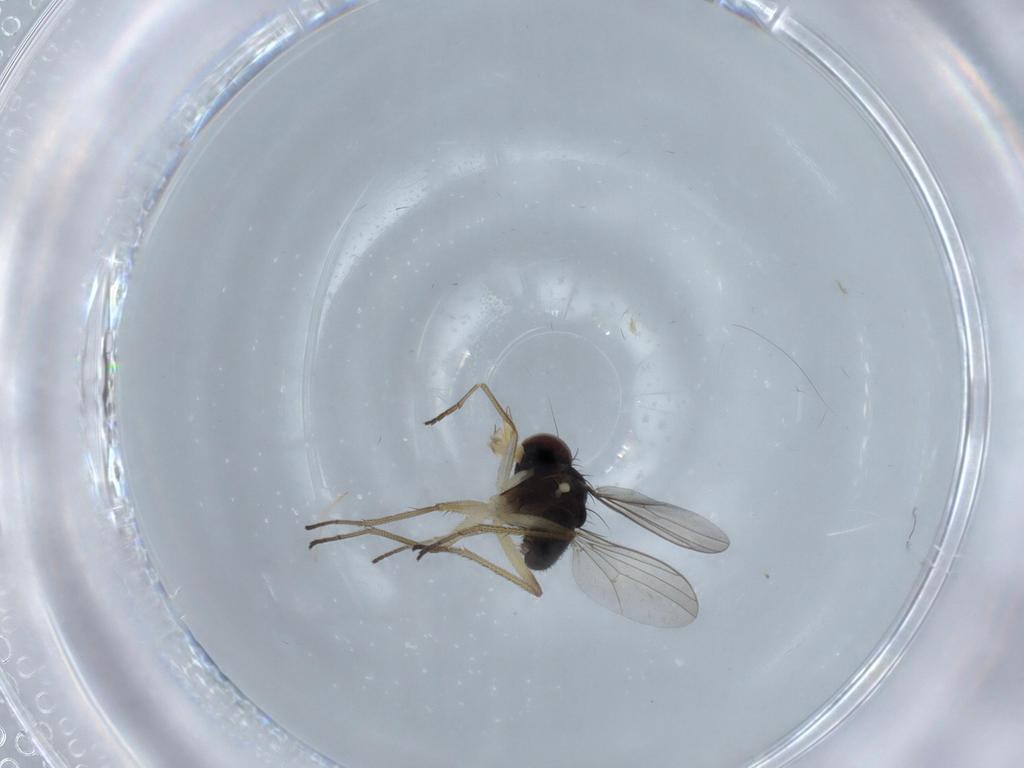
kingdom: Animalia
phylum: Arthropoda
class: Insecta
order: Diptera
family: Dolichopodidae
